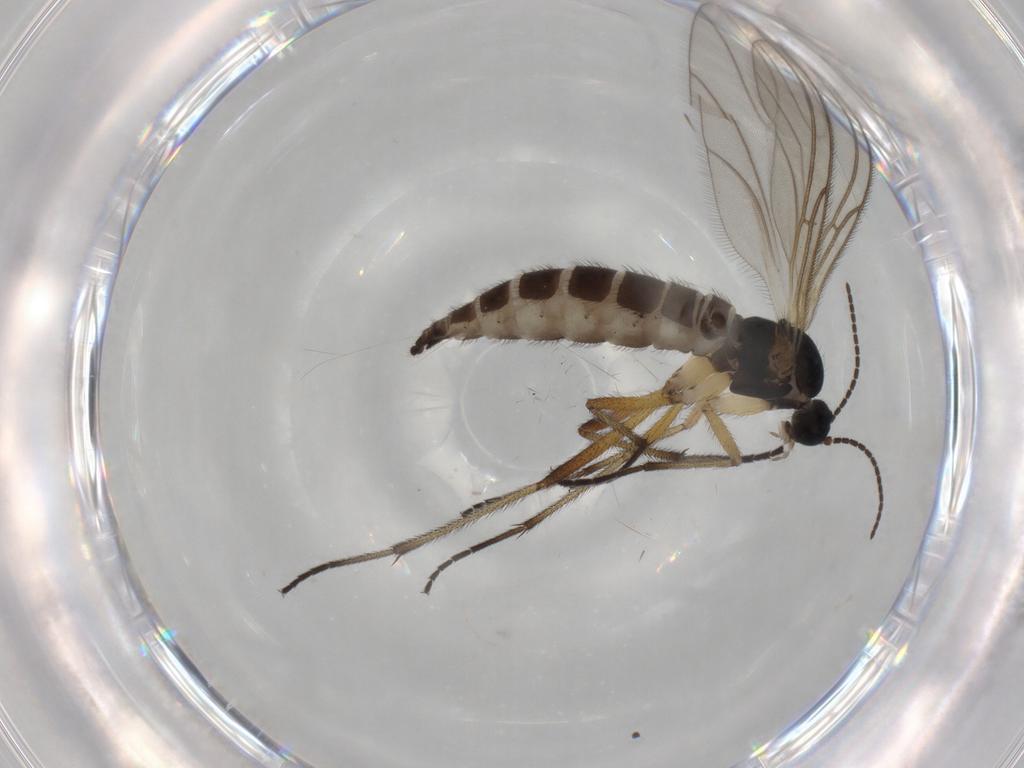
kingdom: Animalia
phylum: Arthropoda
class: Insecta
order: Diptera
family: Sciaridae
